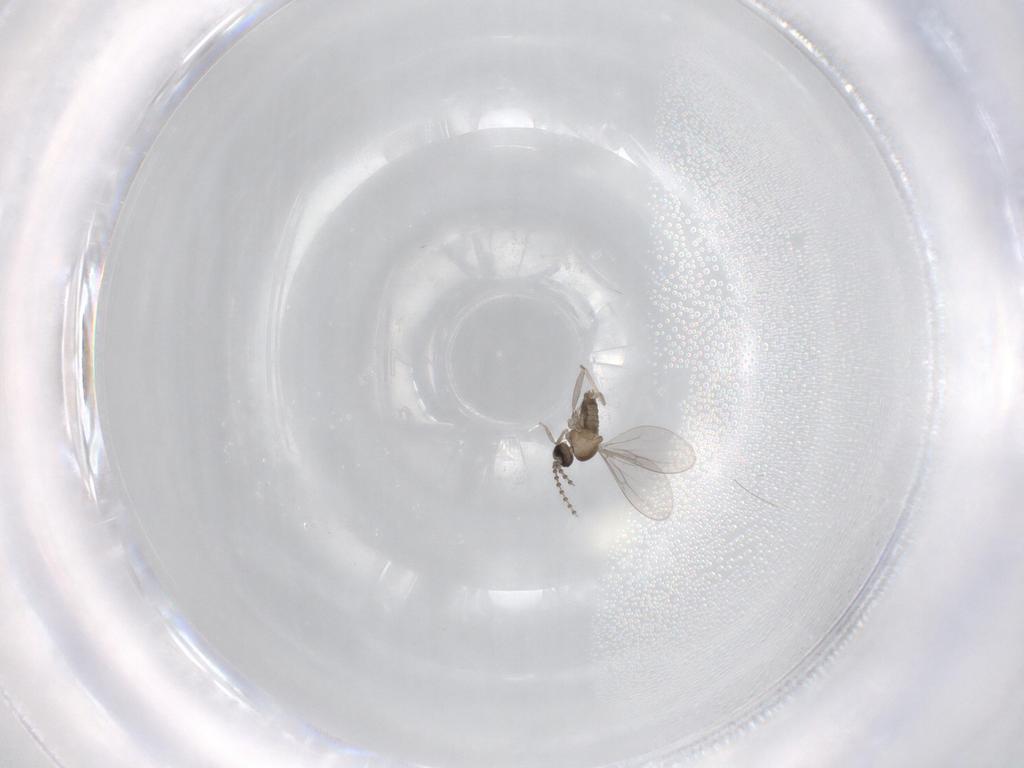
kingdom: Animalia
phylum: Arthropoda
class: Insecta
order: Diptera
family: Cecidomyiidae
